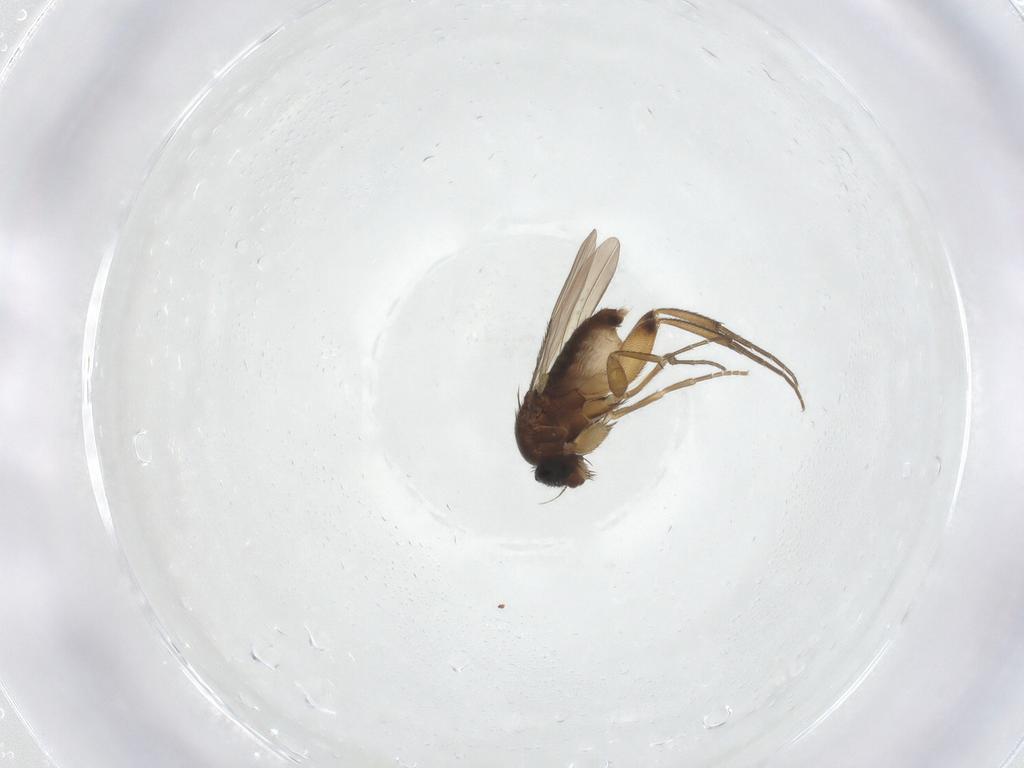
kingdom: Animalia
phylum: Arthropoda
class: Insecta
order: Diptera
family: Phoridae
